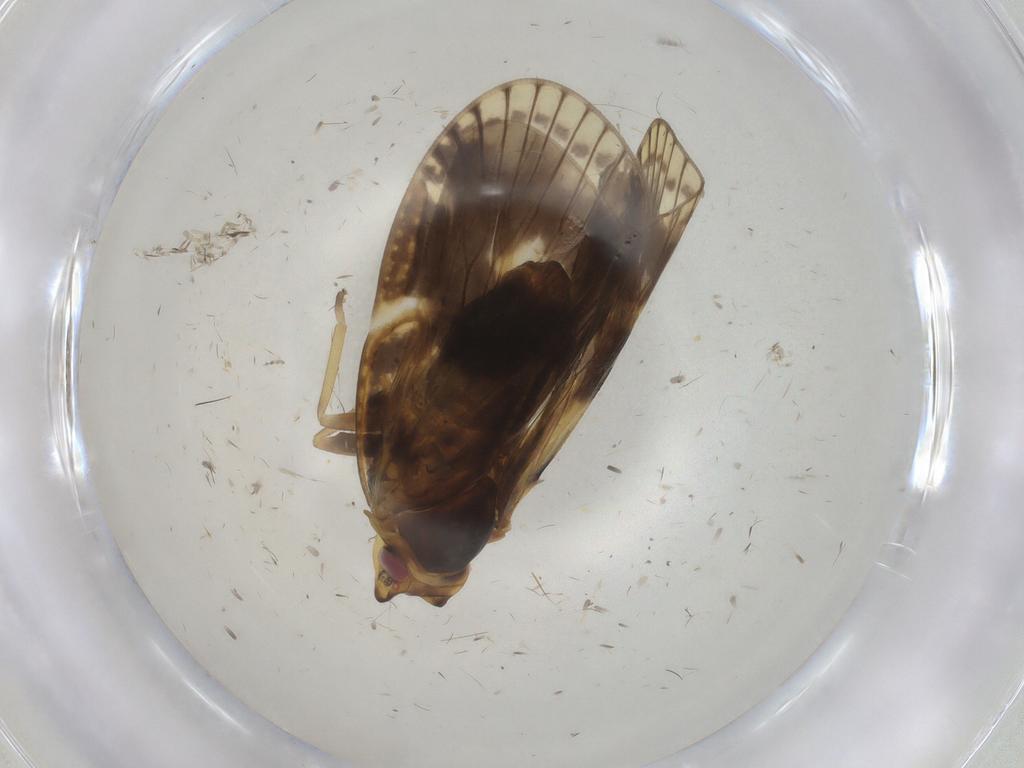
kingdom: Animalia
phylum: Arthropoda
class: Insecta
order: Hemiptera
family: Cixiidae
